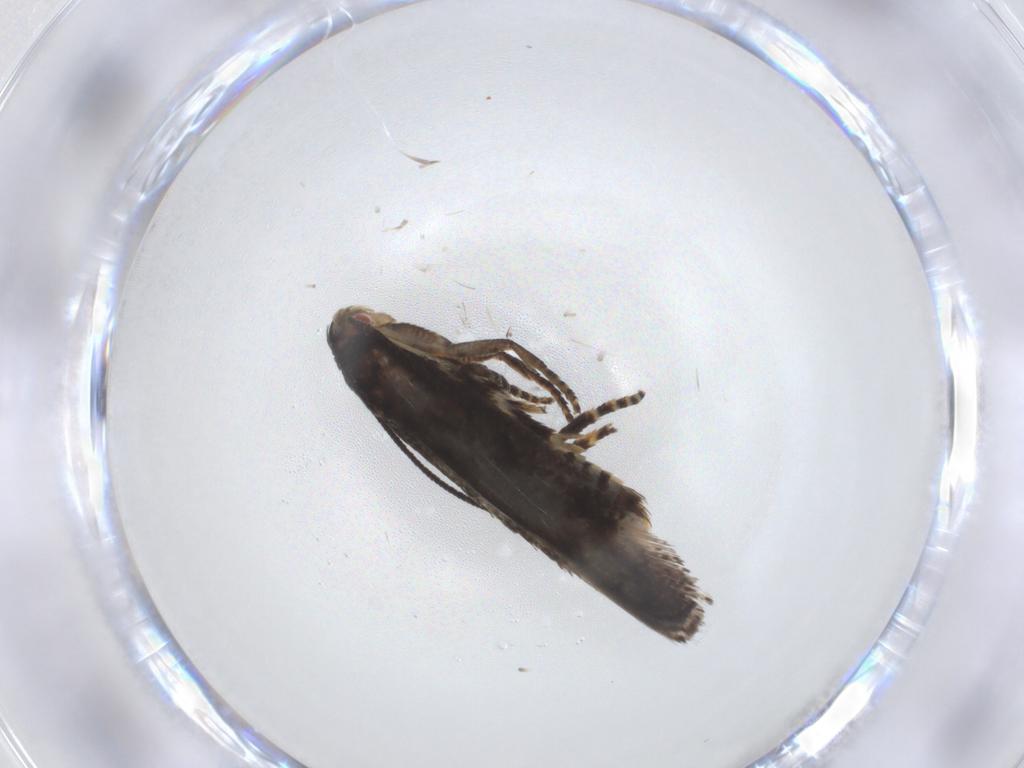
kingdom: Animalia
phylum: Arthropoda
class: Insecta
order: Lepidoptera
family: Momphidae
